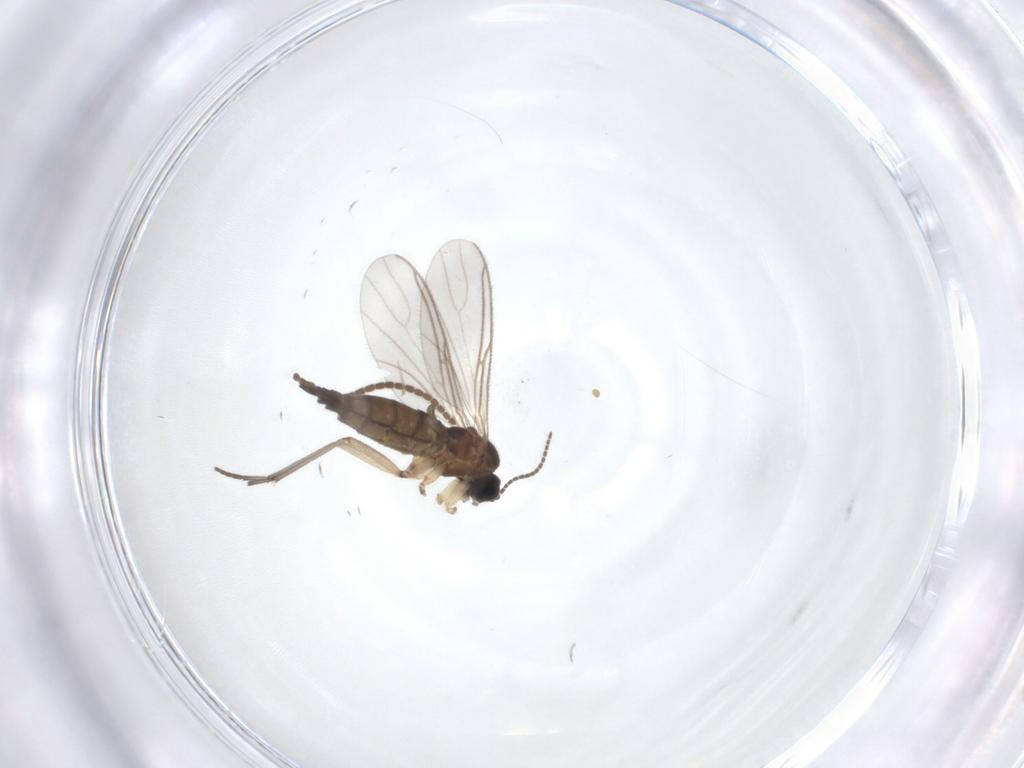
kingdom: Animalia
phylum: Arthropoda
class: Insecta
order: Diptera
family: Sciaridae
